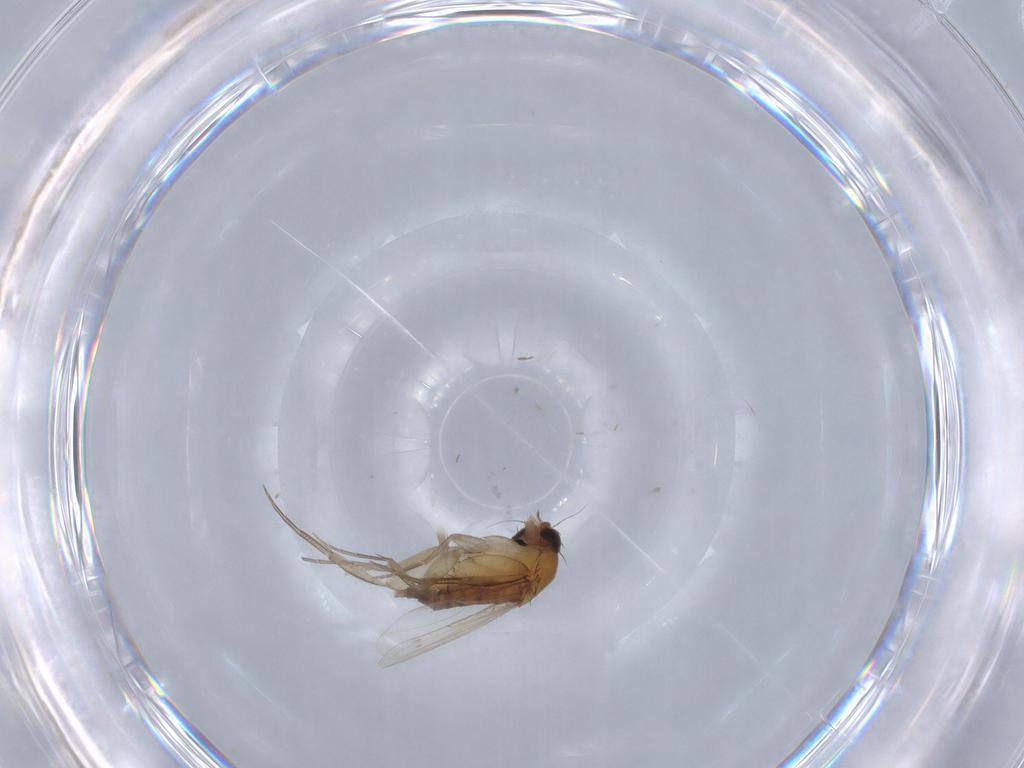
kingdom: Animalia
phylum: Arthropoda
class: Insecta
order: Diptera
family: Phoridae
